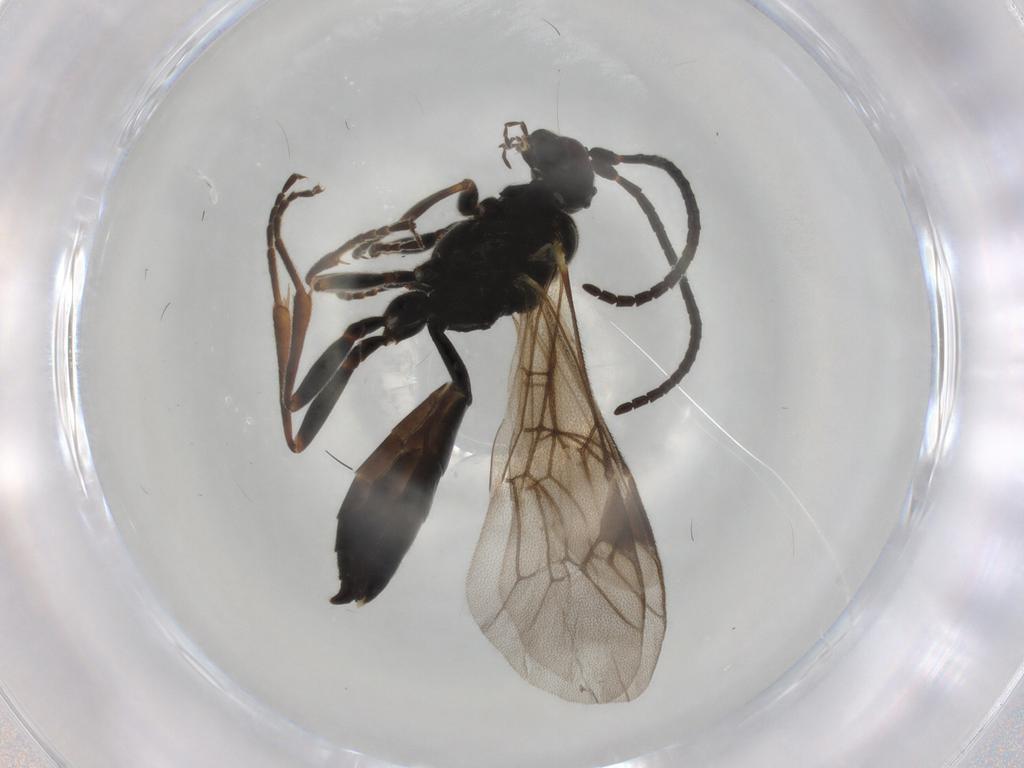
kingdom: Animalia
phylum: Arthropoda
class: Insecta
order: Hymenoptera
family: Ichneumonidae
